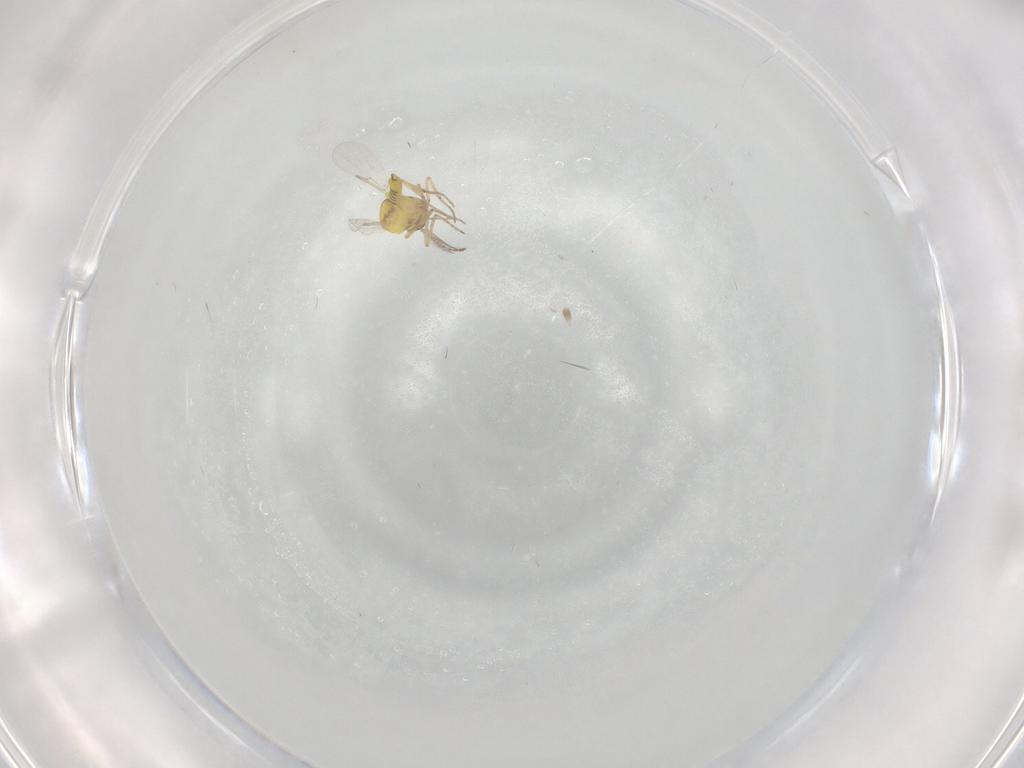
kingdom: Animalia
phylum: Arthropoda
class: Insecta
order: Diptera
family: Ceratopogonidae
